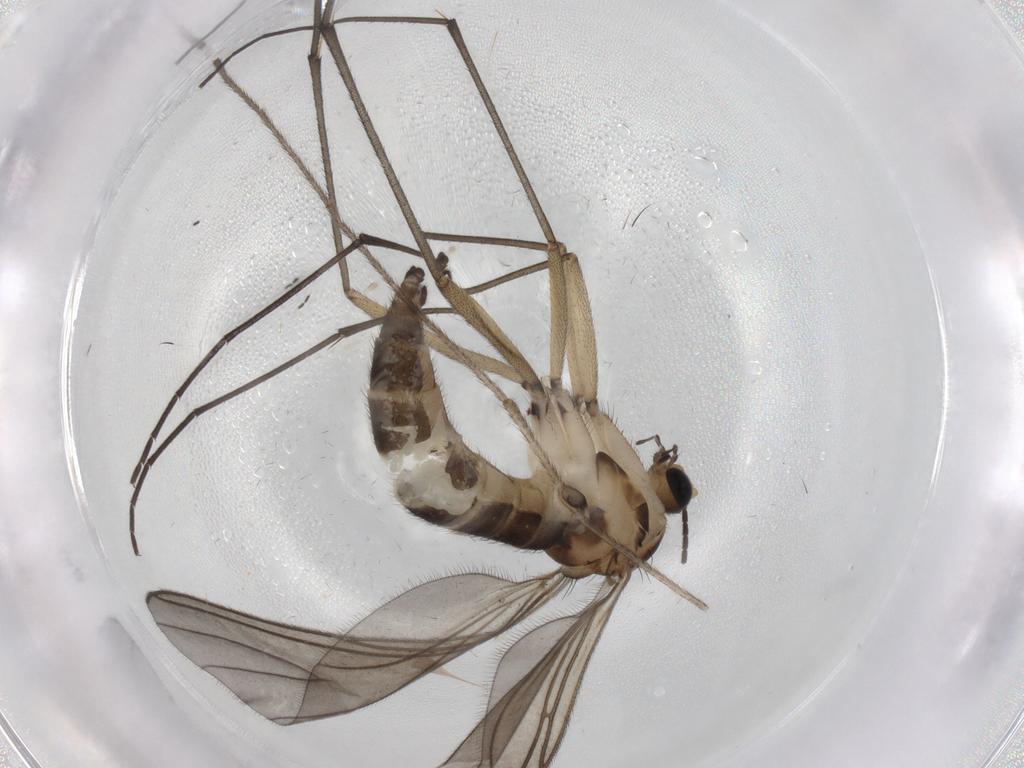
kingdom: Animalia
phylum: Arthropoda
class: Insecta
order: Diptera
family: Sciaridae
